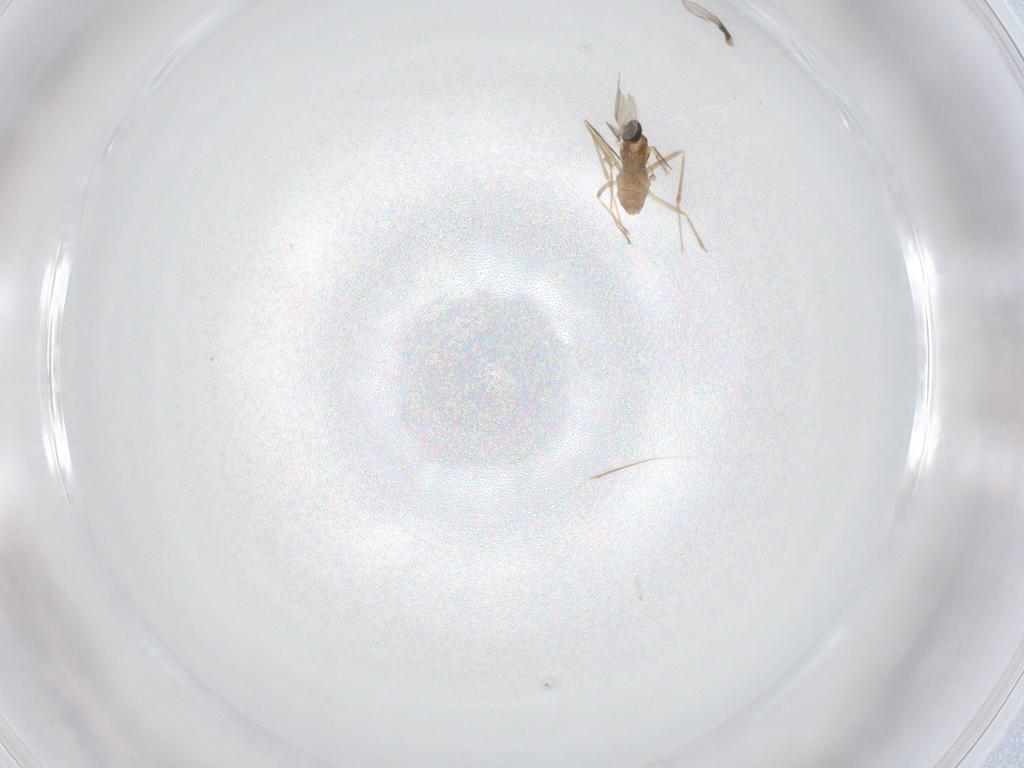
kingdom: Animalia
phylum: Arthropoda
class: Insecta
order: Diptera
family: Cecidomyiidae
